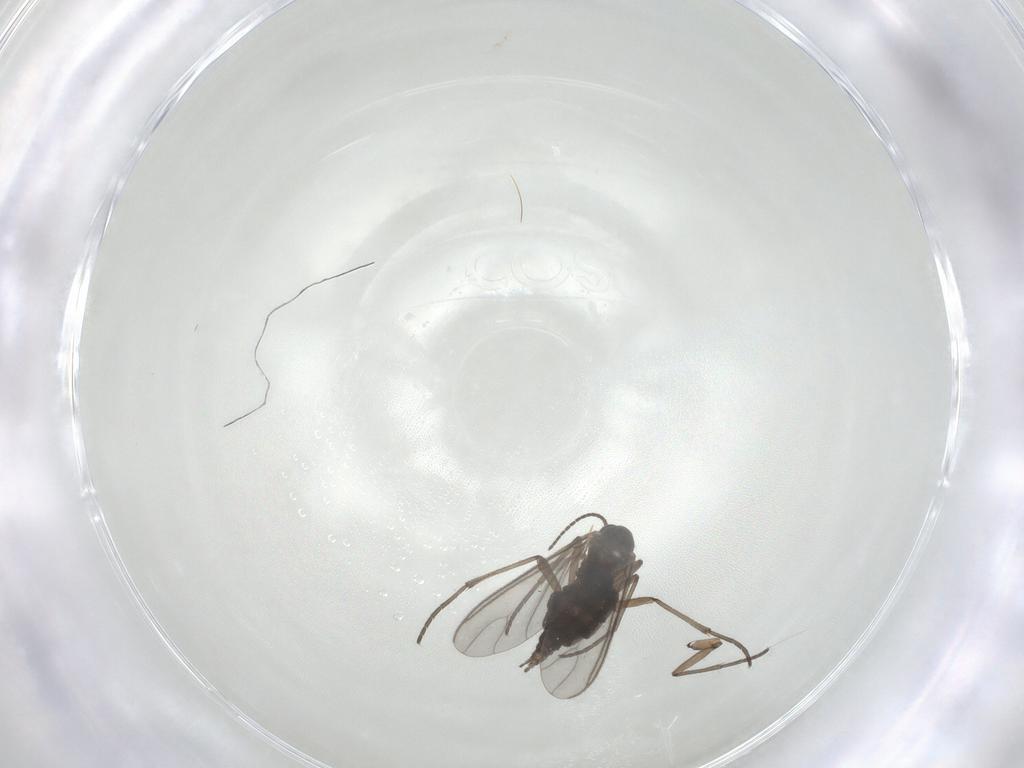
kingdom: Animalia
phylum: Arthropoda
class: Insecta
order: Diptera
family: Sciaridae
